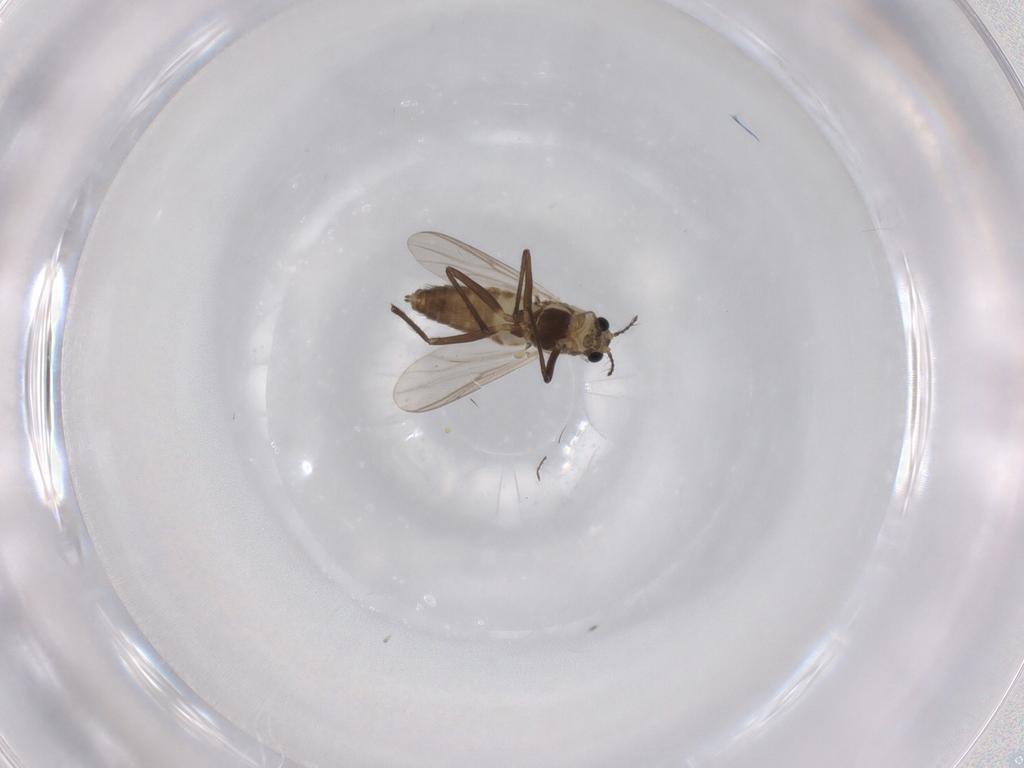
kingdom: Animalia
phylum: Arthropoda
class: Insecta
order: Diptera
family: Chironomidae
